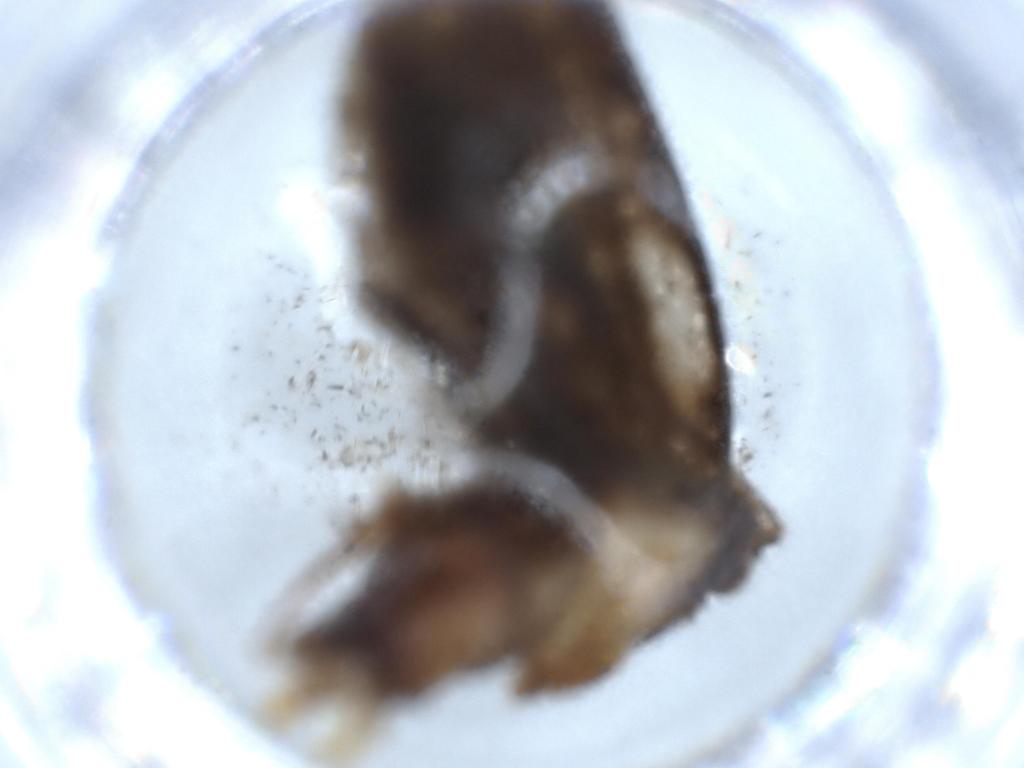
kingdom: Animalia
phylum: Arthropoda
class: Insecta
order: Lepidoptera
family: Tineidae
